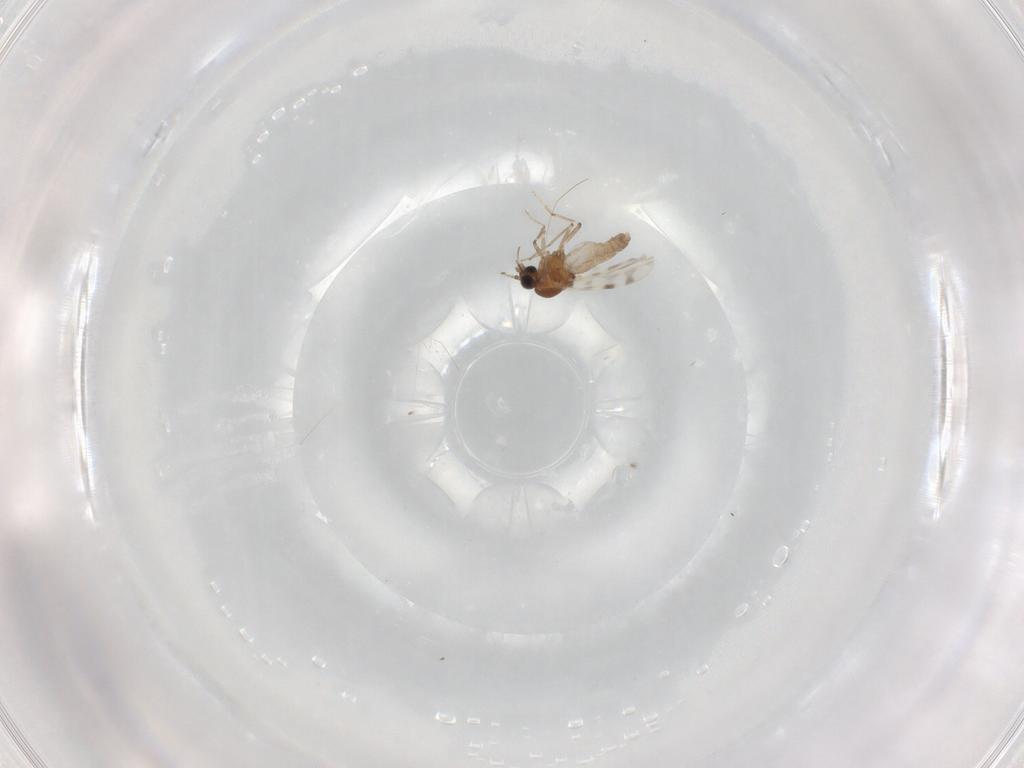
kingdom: Animalia
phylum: Arthropoda
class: Insecta
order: Diptera
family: Ceratopogonidae
